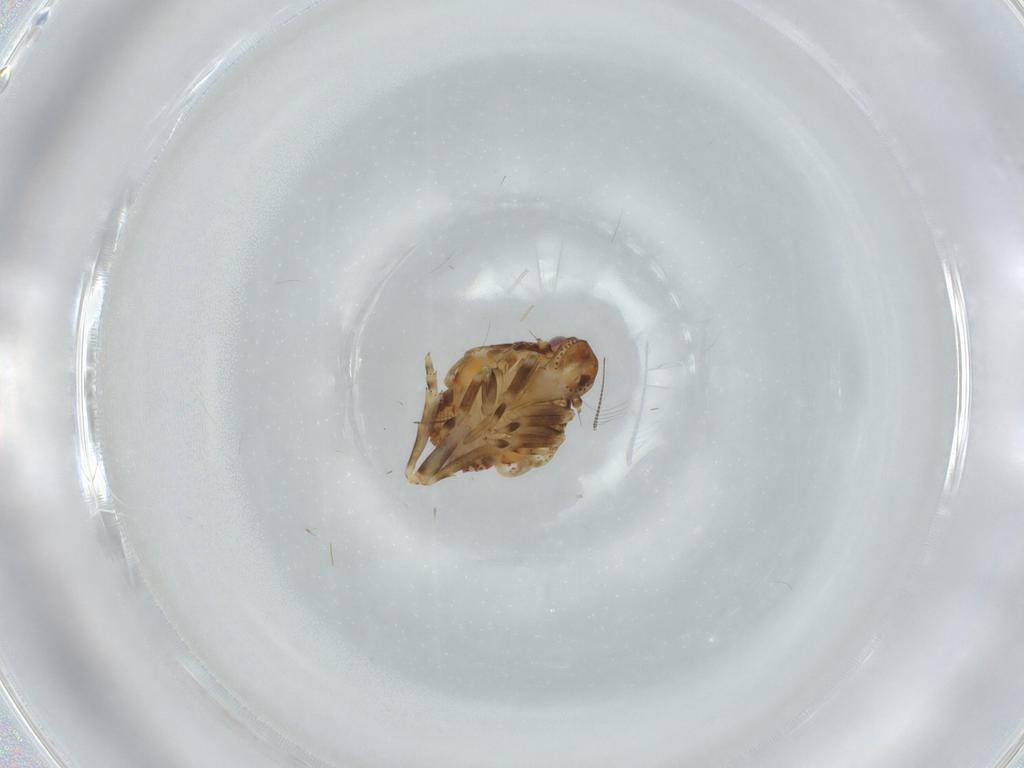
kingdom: Animalia
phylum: Arthropoda
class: Insecta
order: Hemiptera
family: Flatidae
